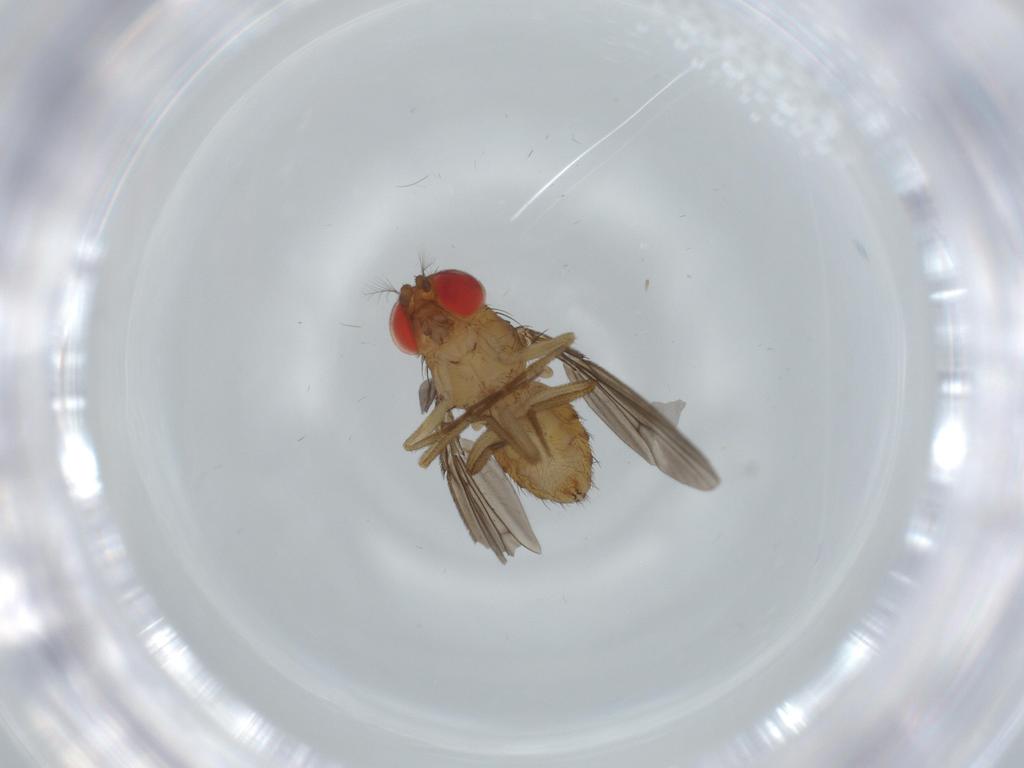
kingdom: Animalia
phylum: Arthropoda
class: Insecta
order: Diptera
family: Drosophilidae
